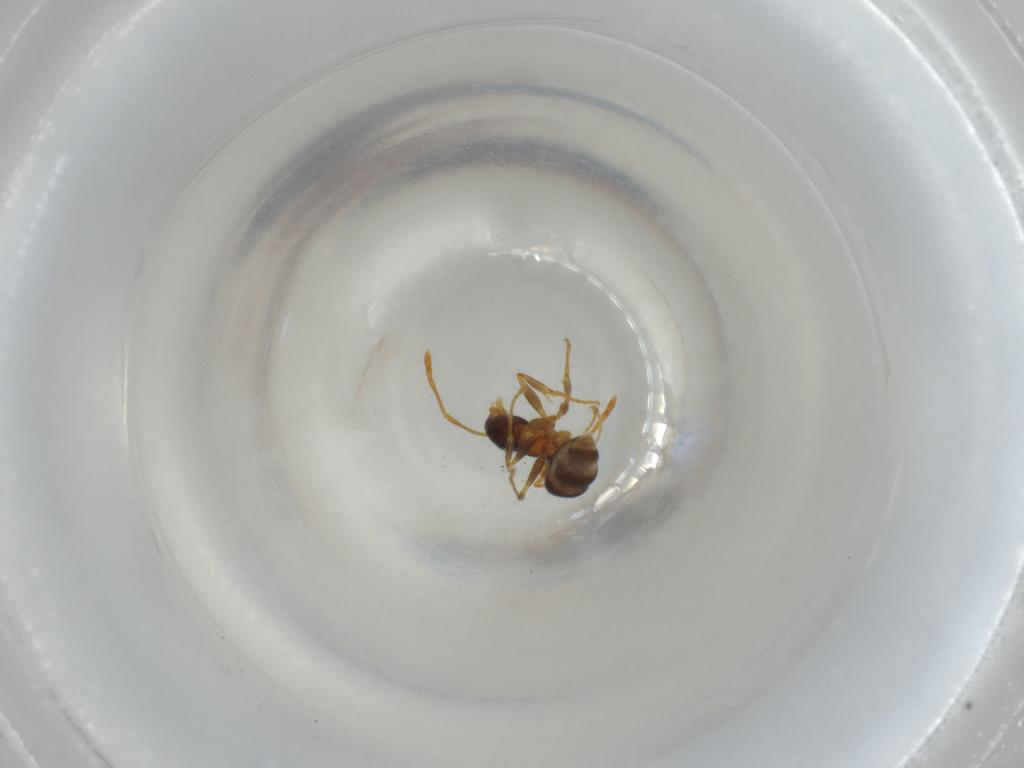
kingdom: Animalia
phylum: Arthropoda
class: Insecta
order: Hymenoptera
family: Formicidae
